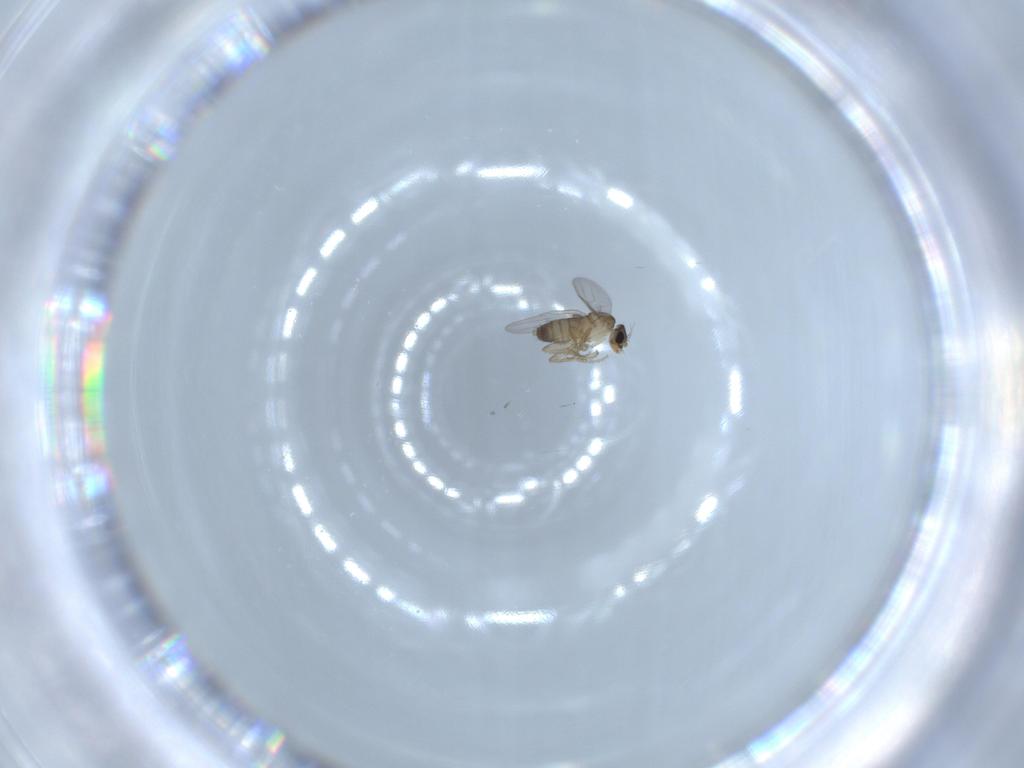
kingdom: Animalia
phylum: Arthropoda
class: Insecta
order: Diptera
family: Phoridae
